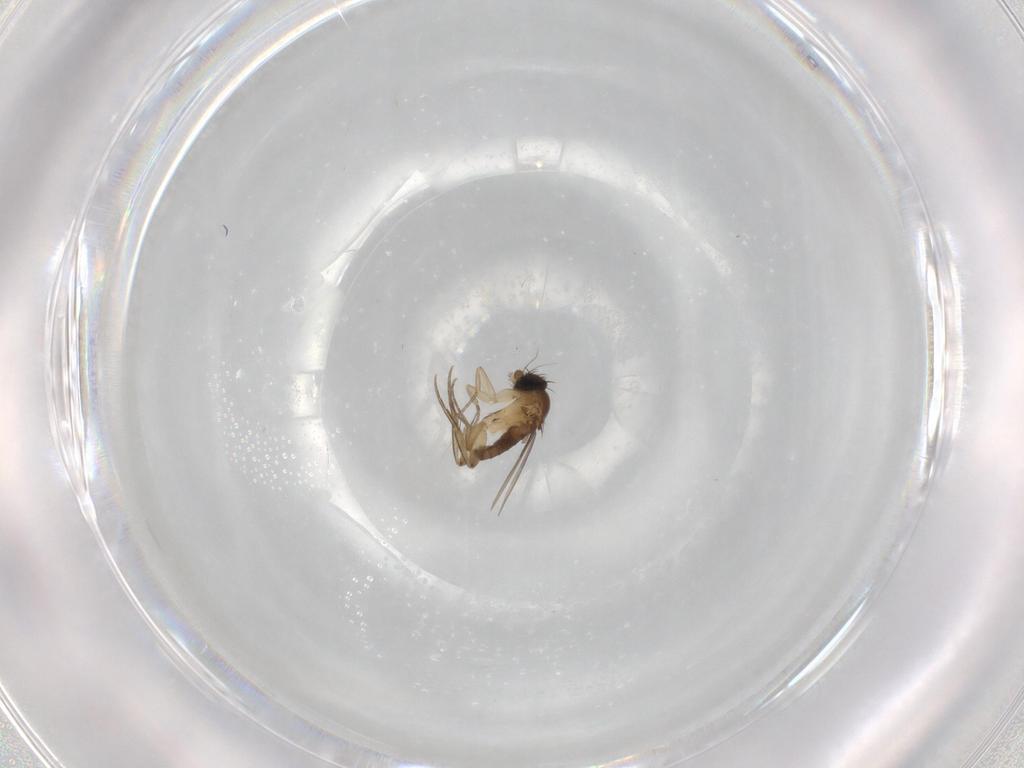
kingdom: Animalia
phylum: Arthropoda
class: Insecta
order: Diptera
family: Phoridae
